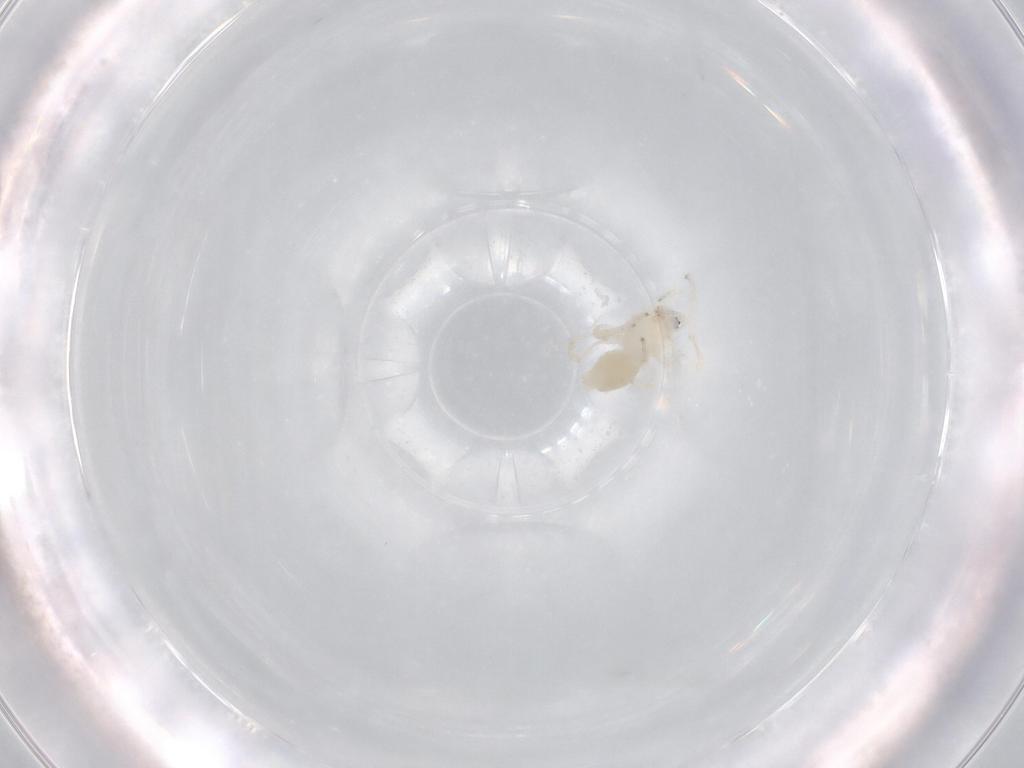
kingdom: Animalia
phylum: Arthropoda
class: Arachnida
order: Araneae
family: Anyphaenidae
